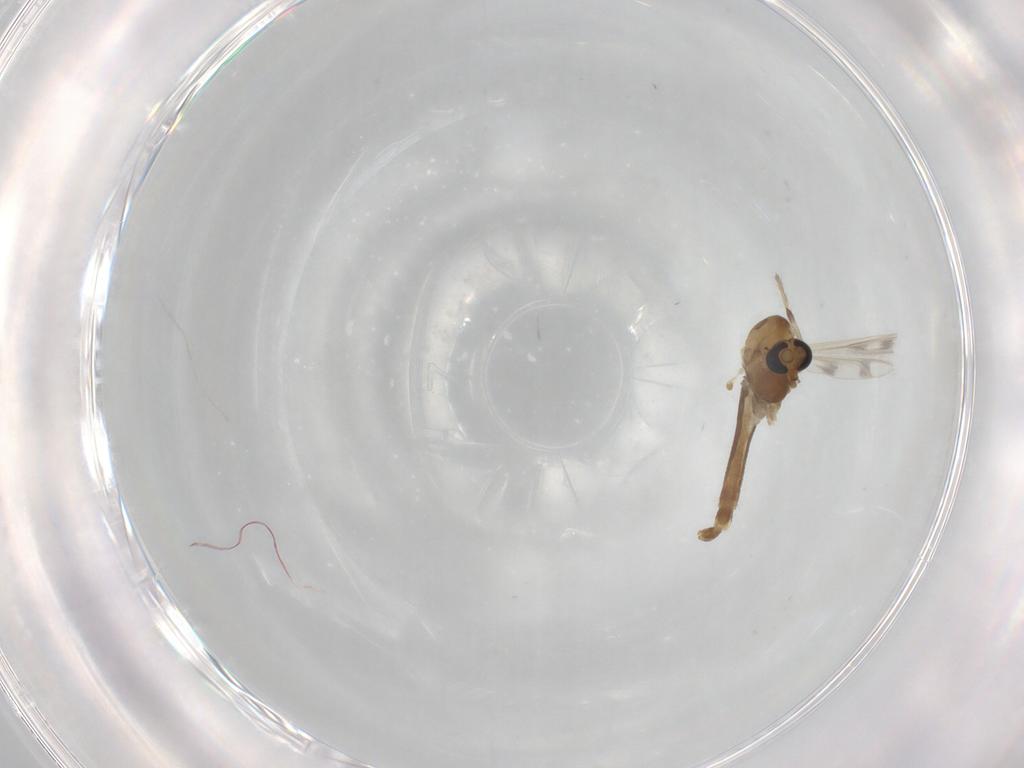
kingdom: Animalia
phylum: Arthropoda
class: Insecta
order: Diptera
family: Chironomidae
